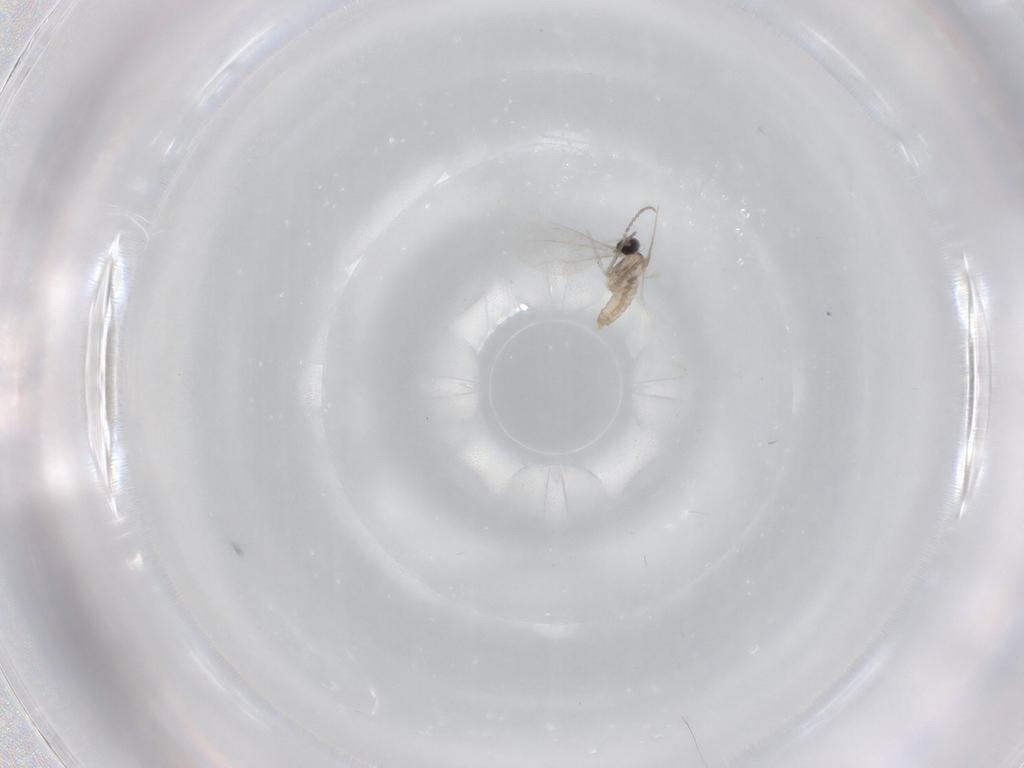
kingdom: Animalia
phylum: Arthropoda
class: Insecta
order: Diptera
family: Cecidomyiidae
